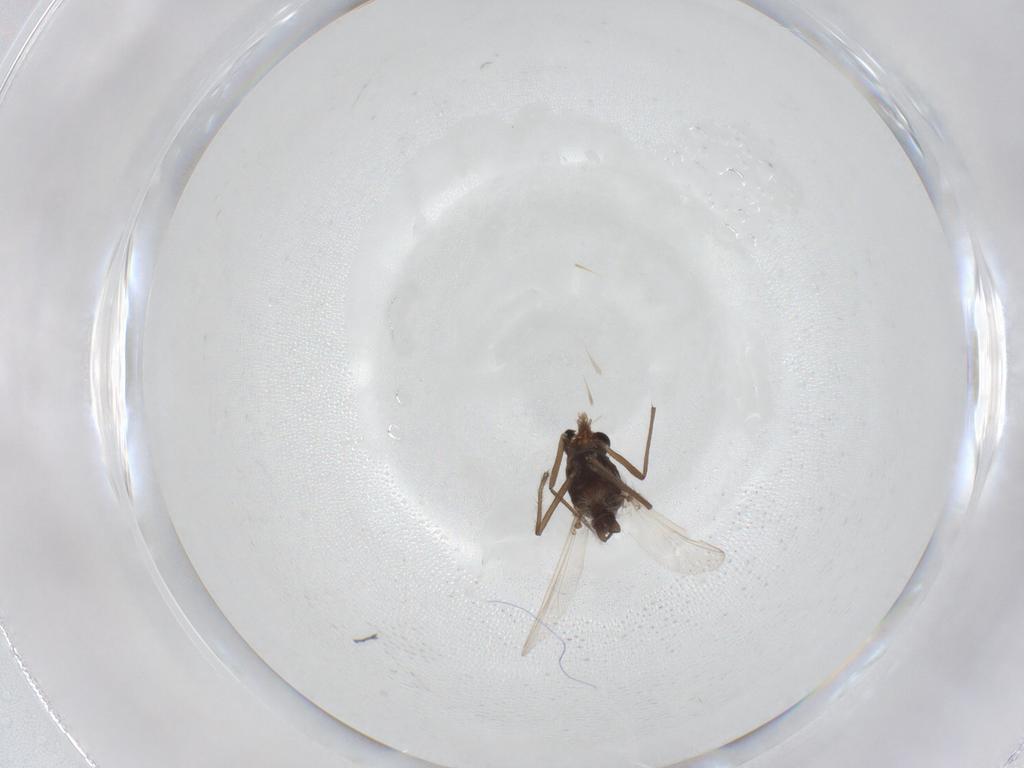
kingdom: Animalia
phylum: Arthropoda
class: Insecta
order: Diptera
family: Chironomidae
